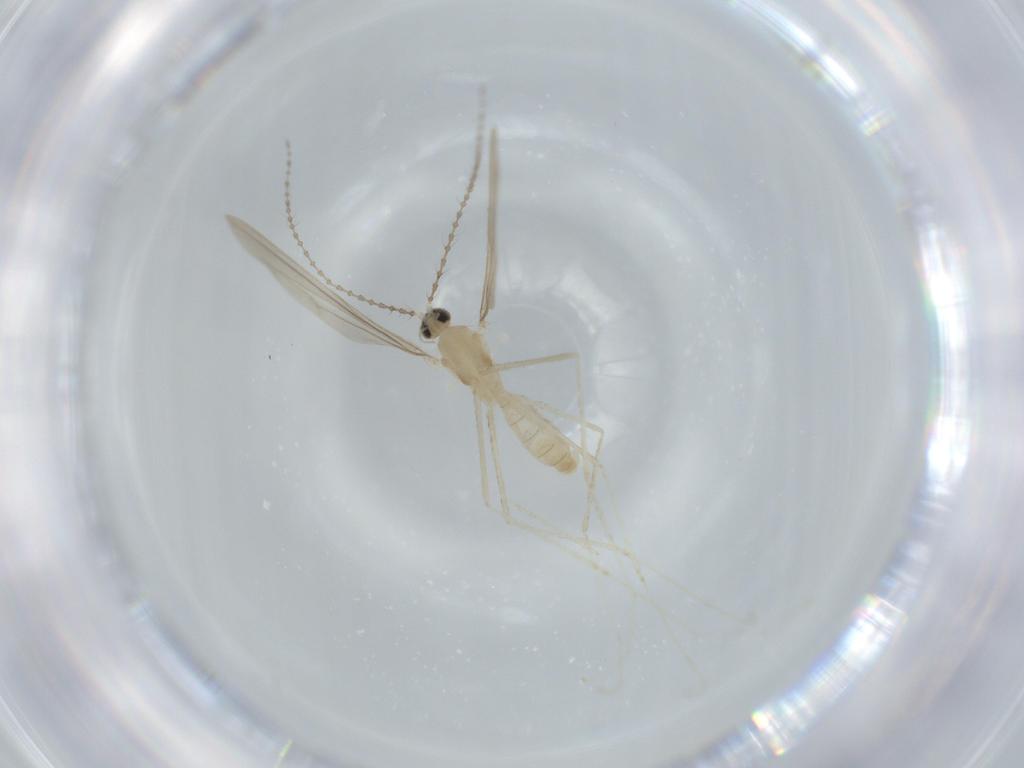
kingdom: Animalia
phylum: Arthropoda
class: Insecta
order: Diptera
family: Cecidomyiidae
